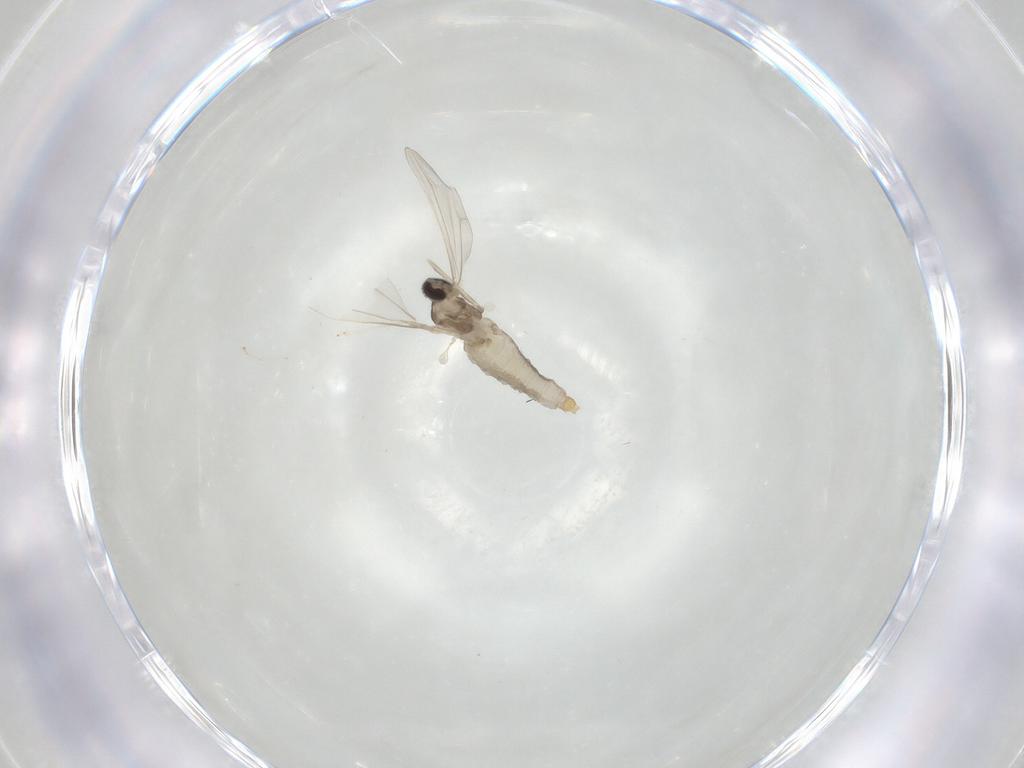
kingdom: Animalia
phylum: Arthropoda
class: Insecta
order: Diptera
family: Cecidomyiidae
